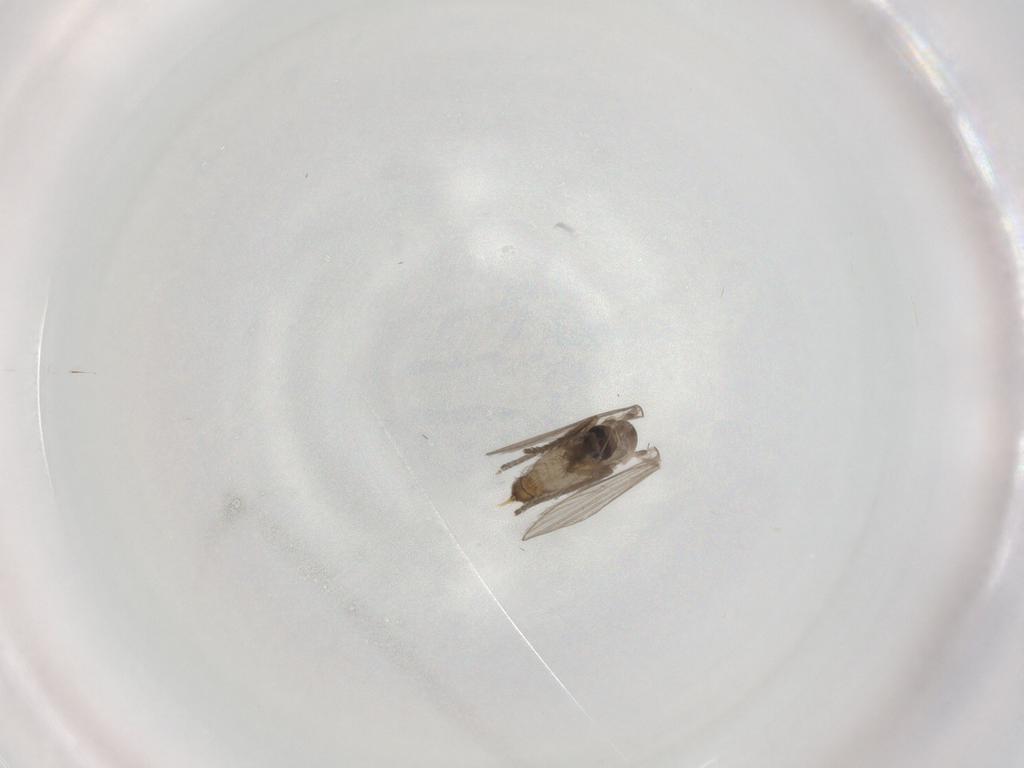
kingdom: Animalia
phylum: Arthropoda
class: Insecta
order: Diptera
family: Psychodidae
